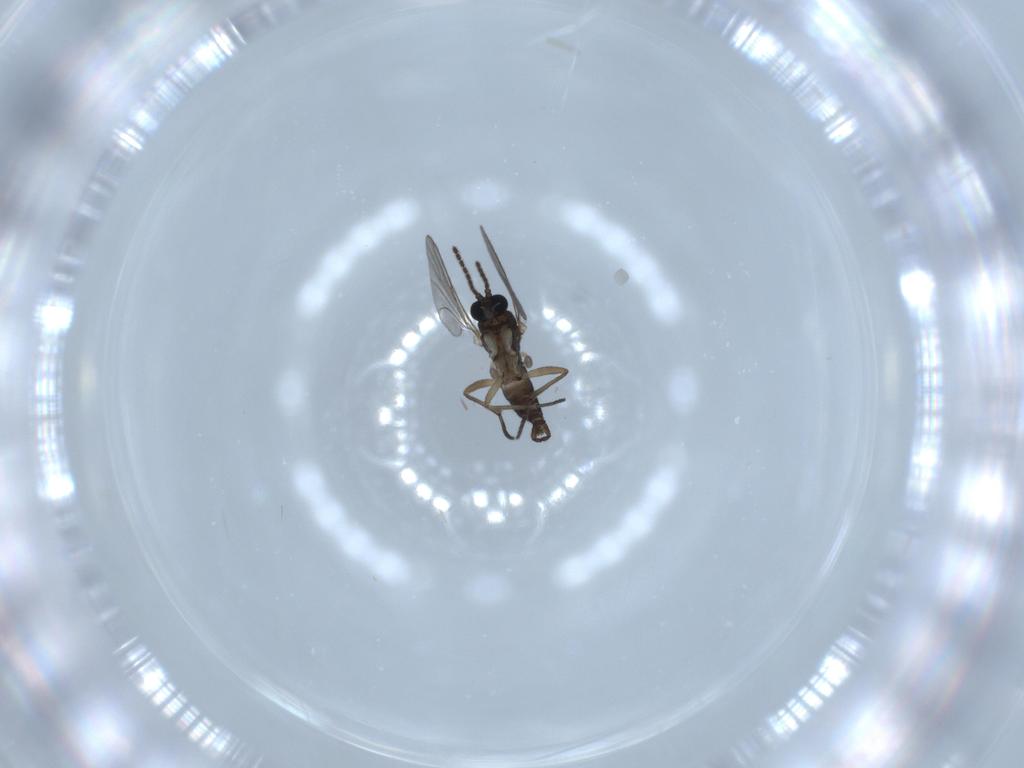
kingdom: Animalia
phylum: Arthropoda
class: Insecta
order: Diptera
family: Sciaridae
